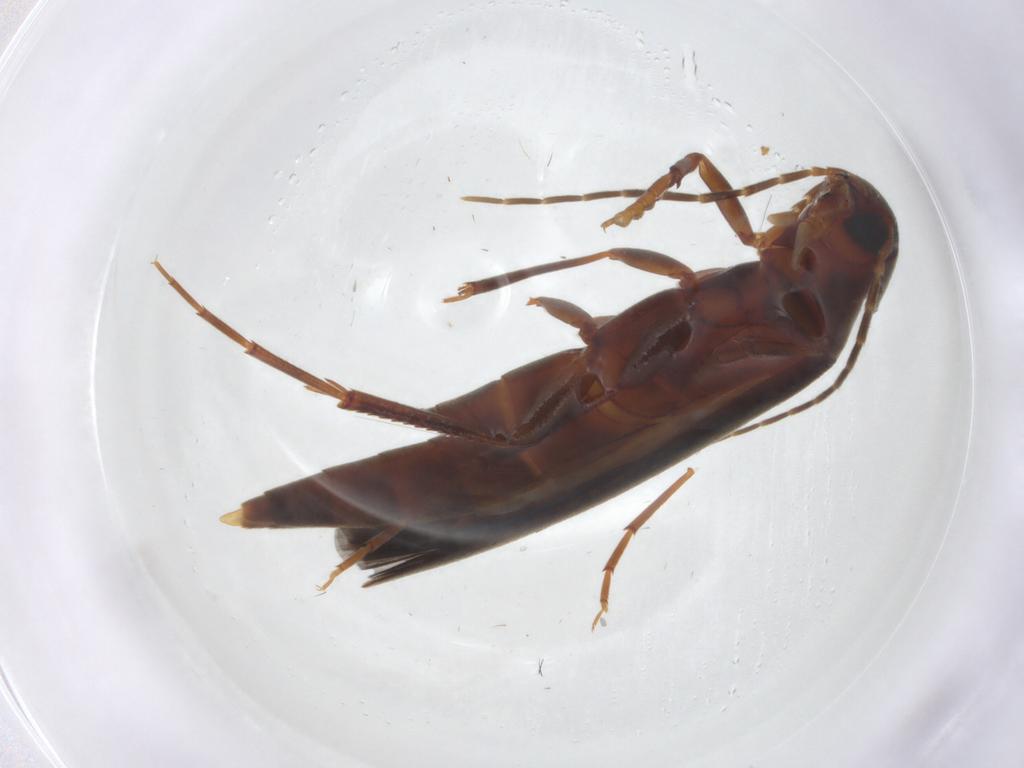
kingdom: Animalia
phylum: Arthropoda
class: Insecta
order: Coleoptera
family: Melandryidae
